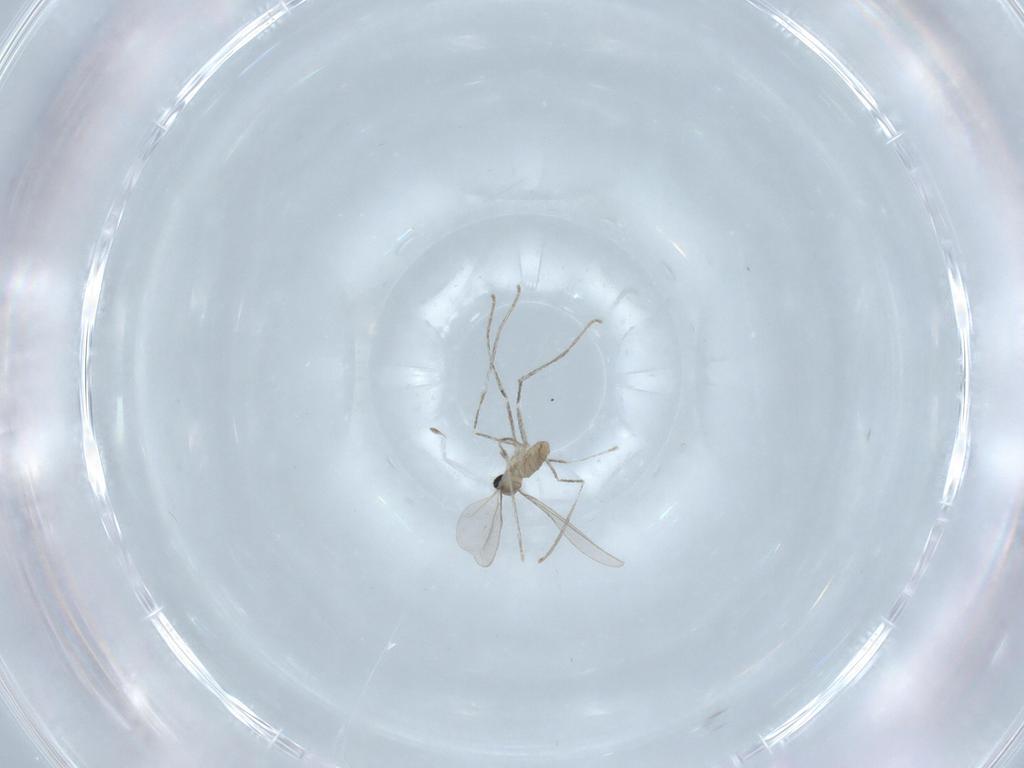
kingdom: Animalia
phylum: Arthropoda
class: Insecta
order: Diptera
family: Cecidomyiidae
